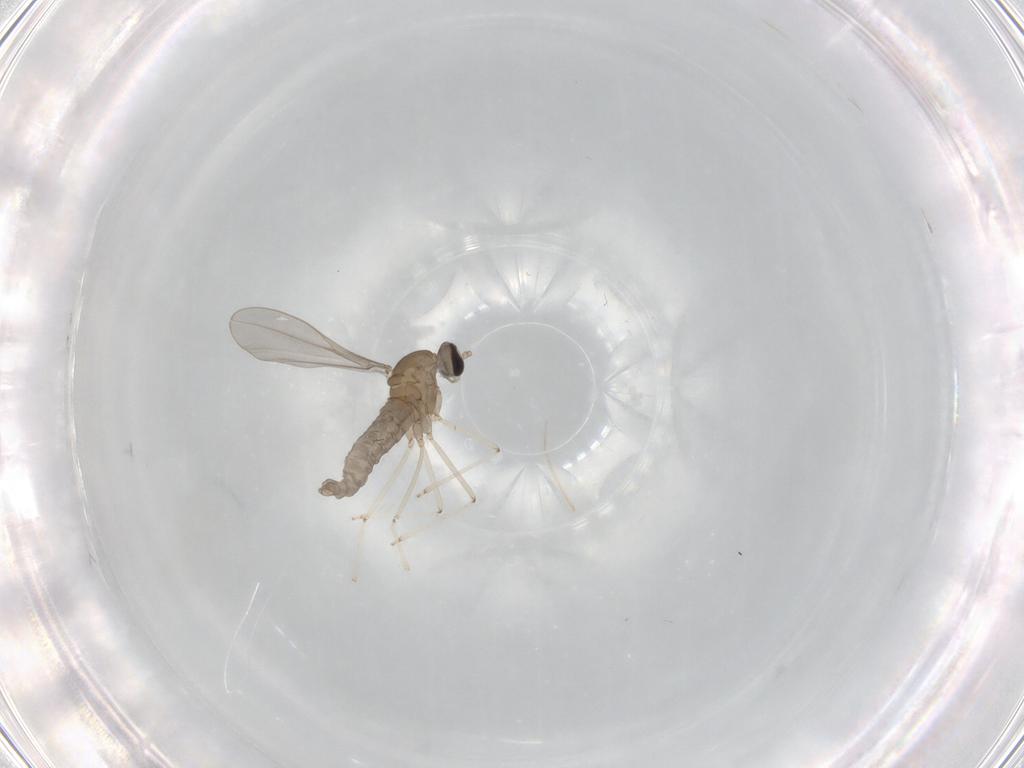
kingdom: Animalia
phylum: Arthropoda
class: Insecta
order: Diptera
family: Cecidomyiidae
